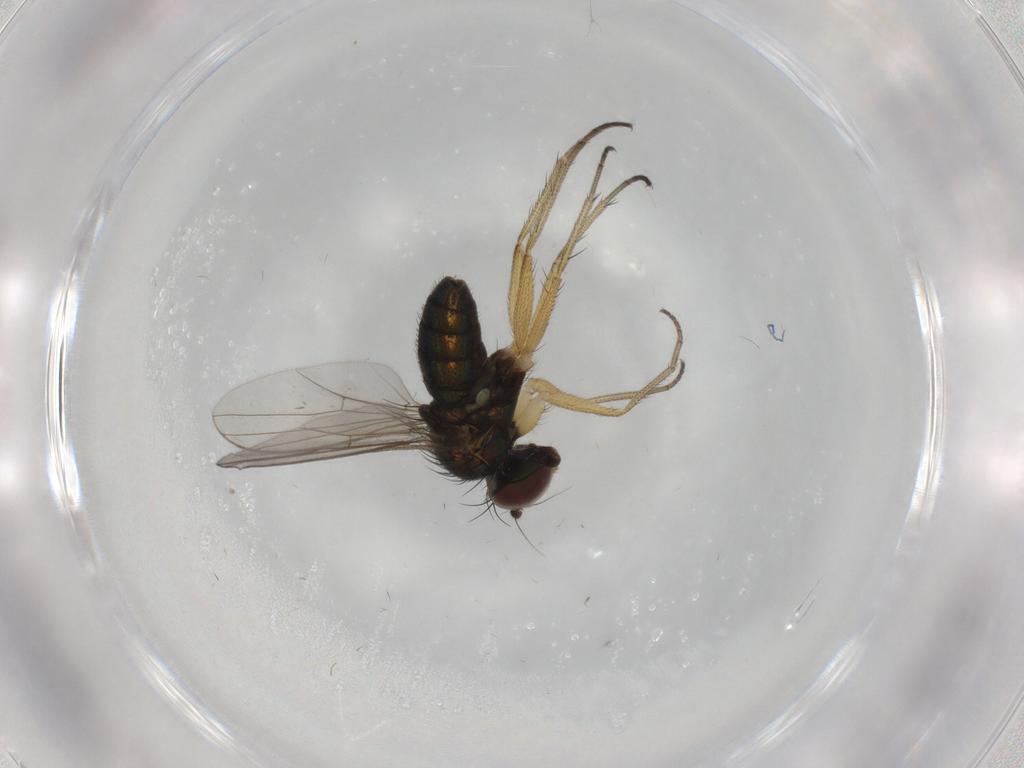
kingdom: Animalia
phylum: Arthropoda
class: Insecta
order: Diptera
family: Dolichopodidae
